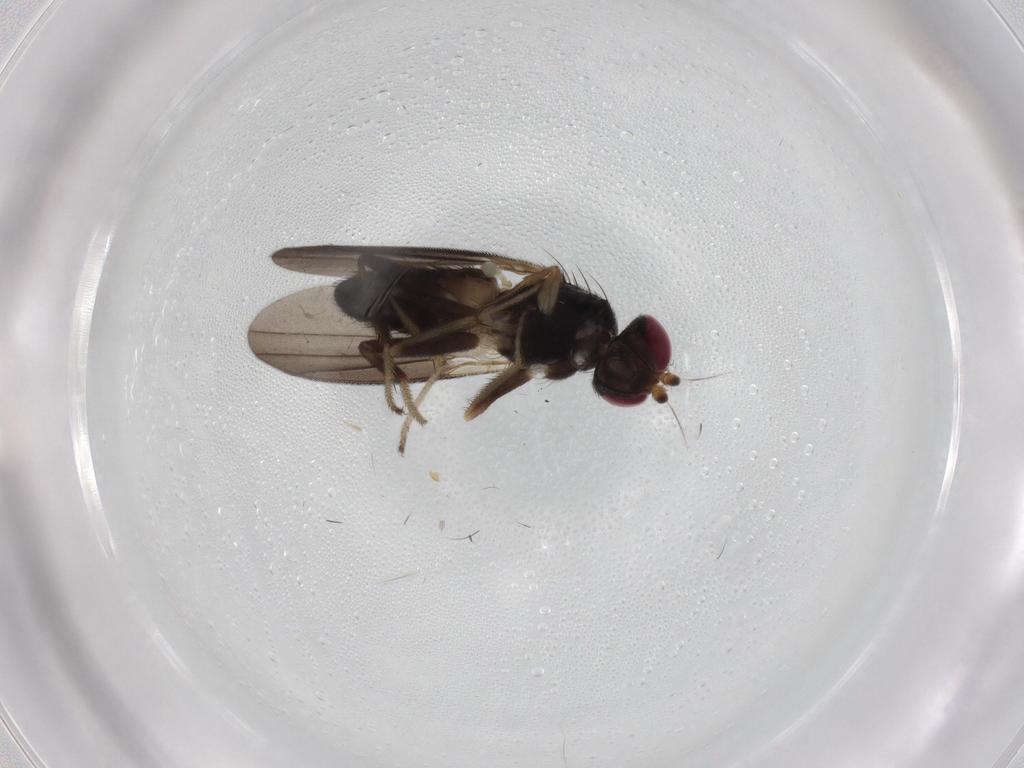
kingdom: Animalia
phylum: Arthropoda
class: Insecta
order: Diptera
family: Clusiidae
